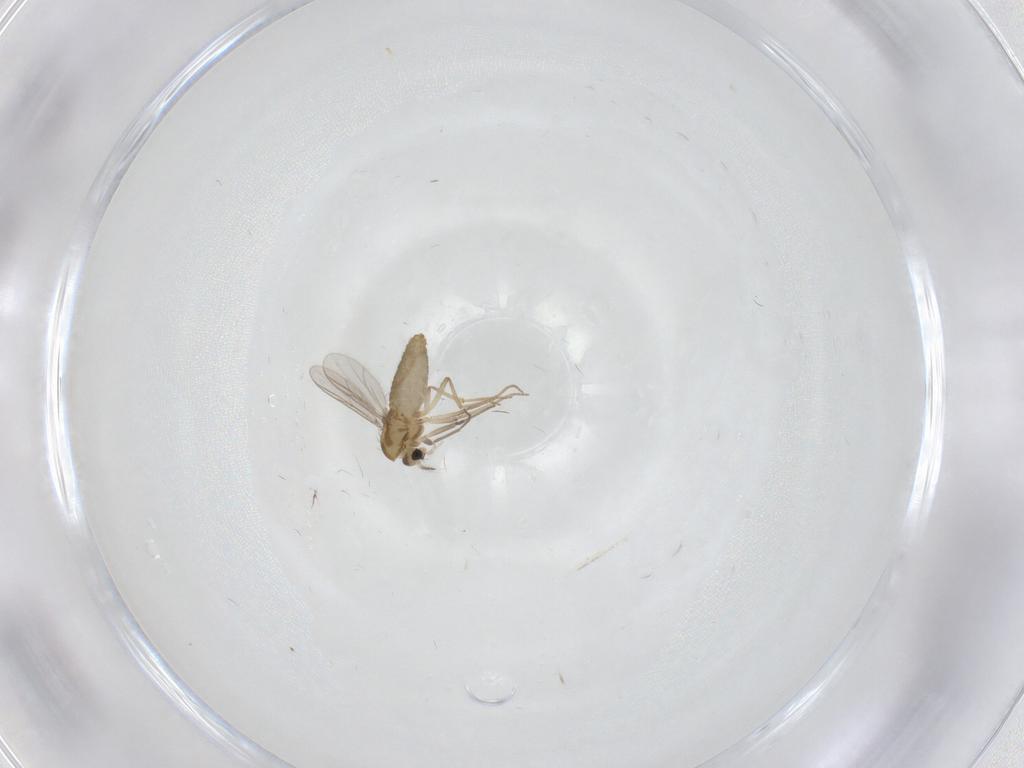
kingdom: Animalia
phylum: Arthropoda
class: Insecta
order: Diptera
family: Chironomidae
